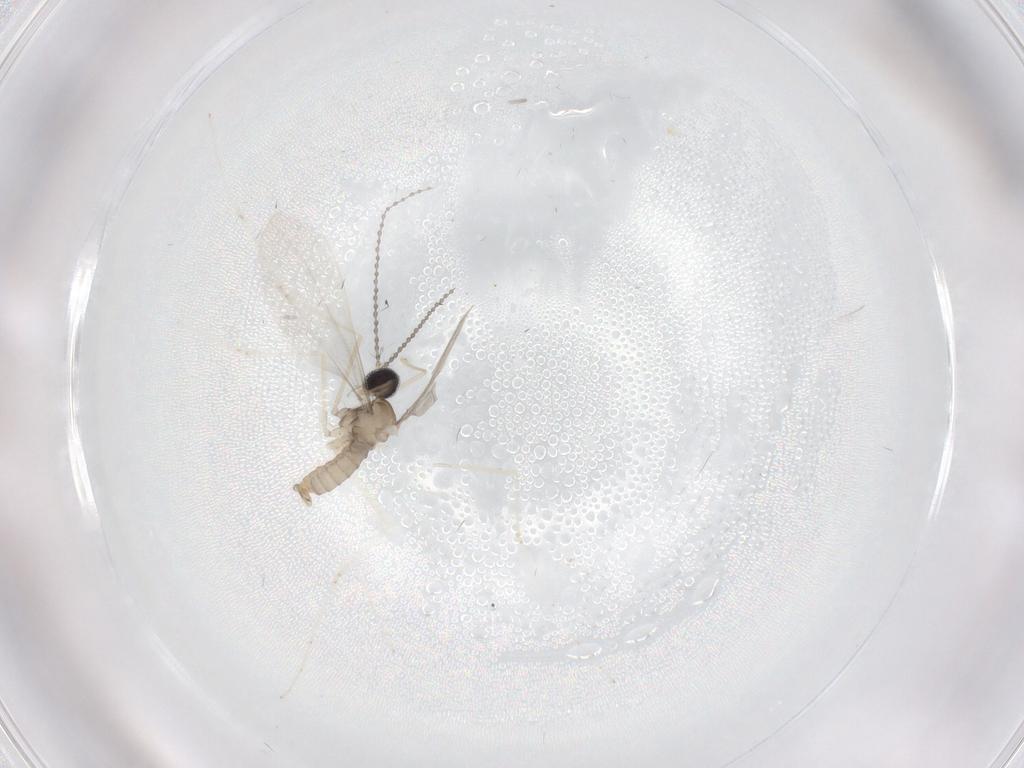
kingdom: Animalia
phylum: Arthropoda
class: Insecta
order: Diptera
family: Cecidomyiidae
